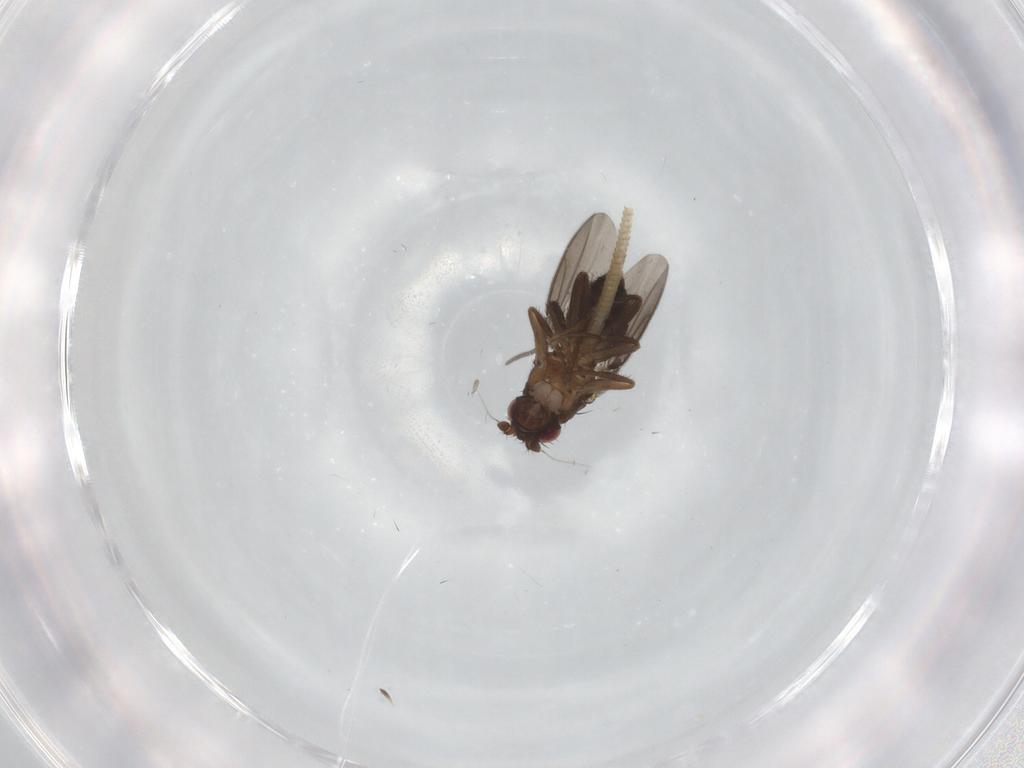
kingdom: Animalia
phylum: Arthropoda
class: Insecta
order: Diptera
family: Sciaridae
